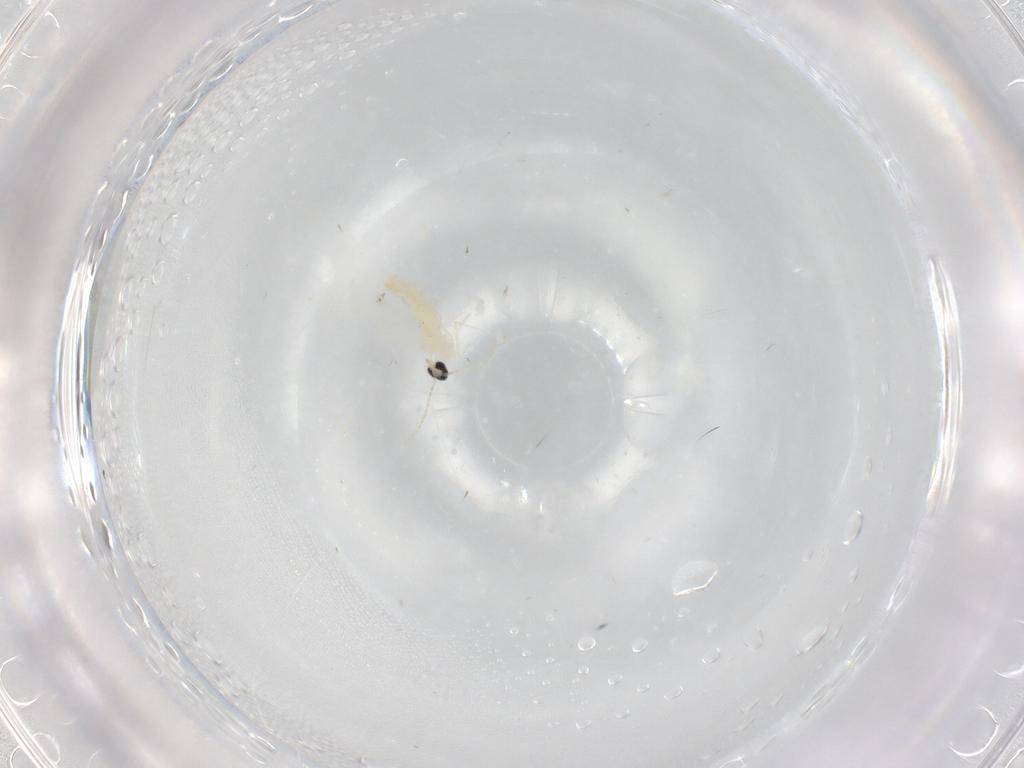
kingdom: Animalia
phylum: Arthropoda
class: Insecta
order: Diptera
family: Cecidomyiidae
